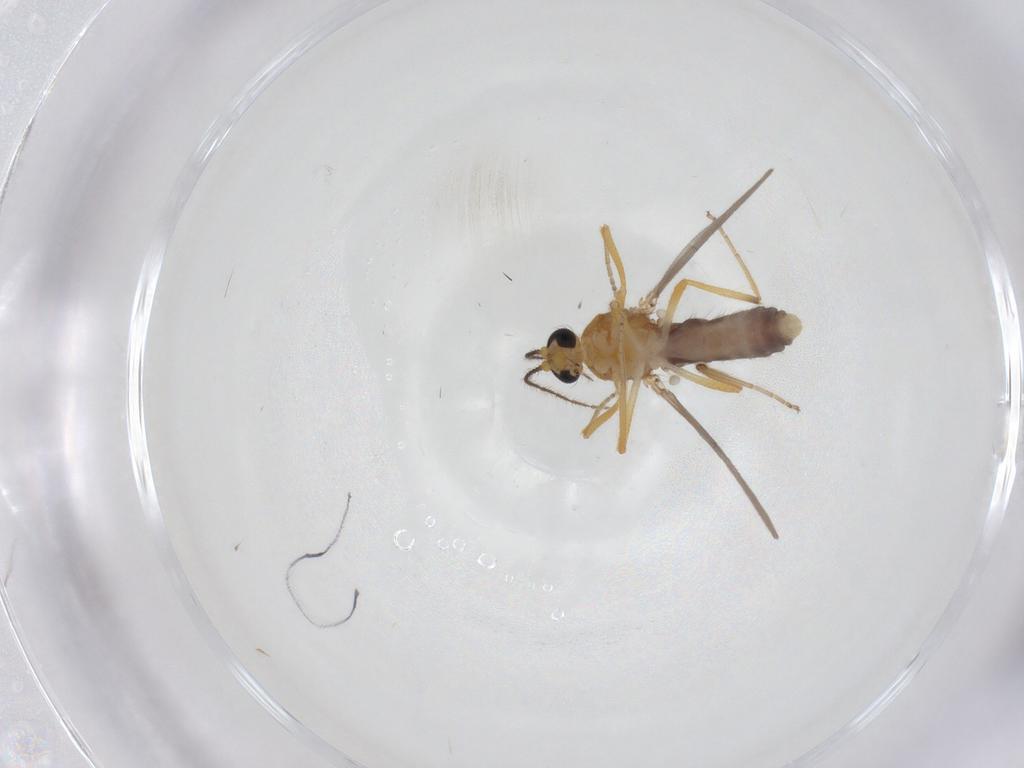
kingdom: Animalia
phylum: Arthropoda
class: Insecta
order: Diptera
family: Ceratopogonidae
